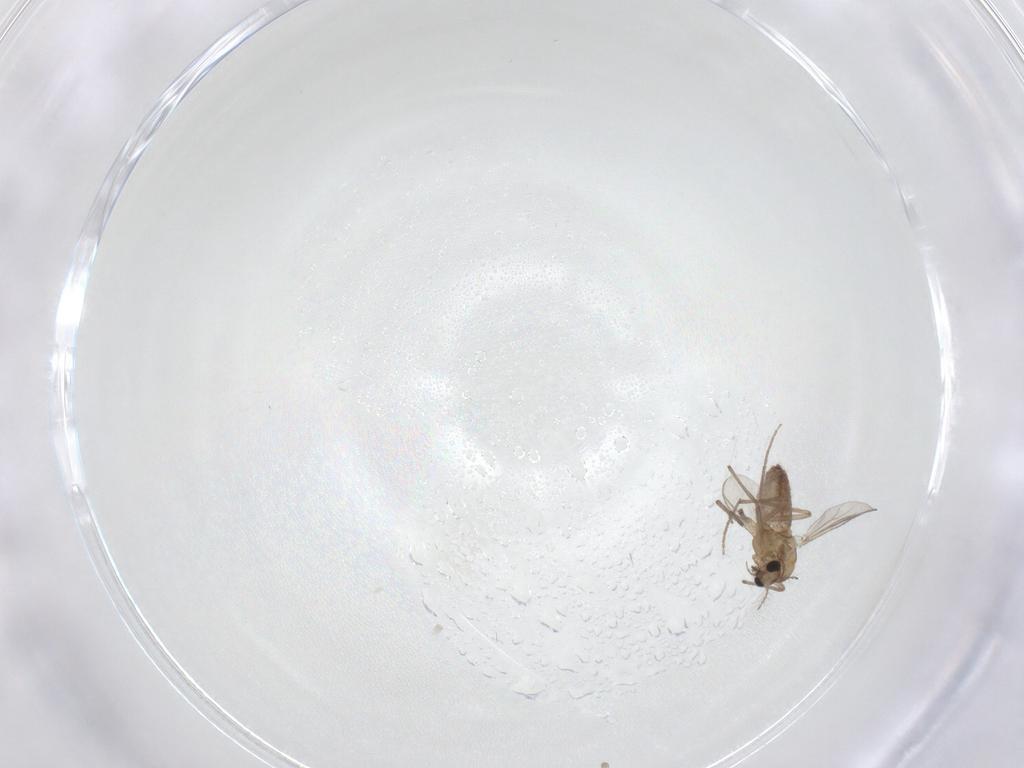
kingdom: Animalia
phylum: Arthropoda
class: Insecta
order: Diptera
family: Chironomidae
